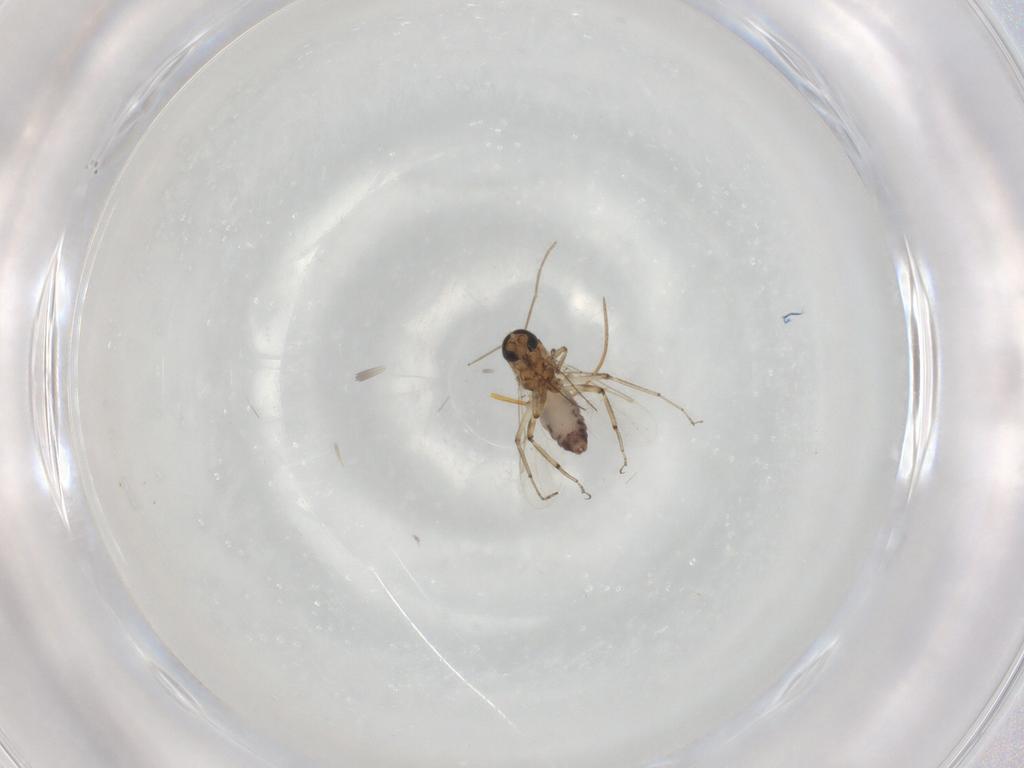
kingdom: Animalia
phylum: Arthropoda
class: Insecta
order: Diptera
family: Ceratopogonidae
